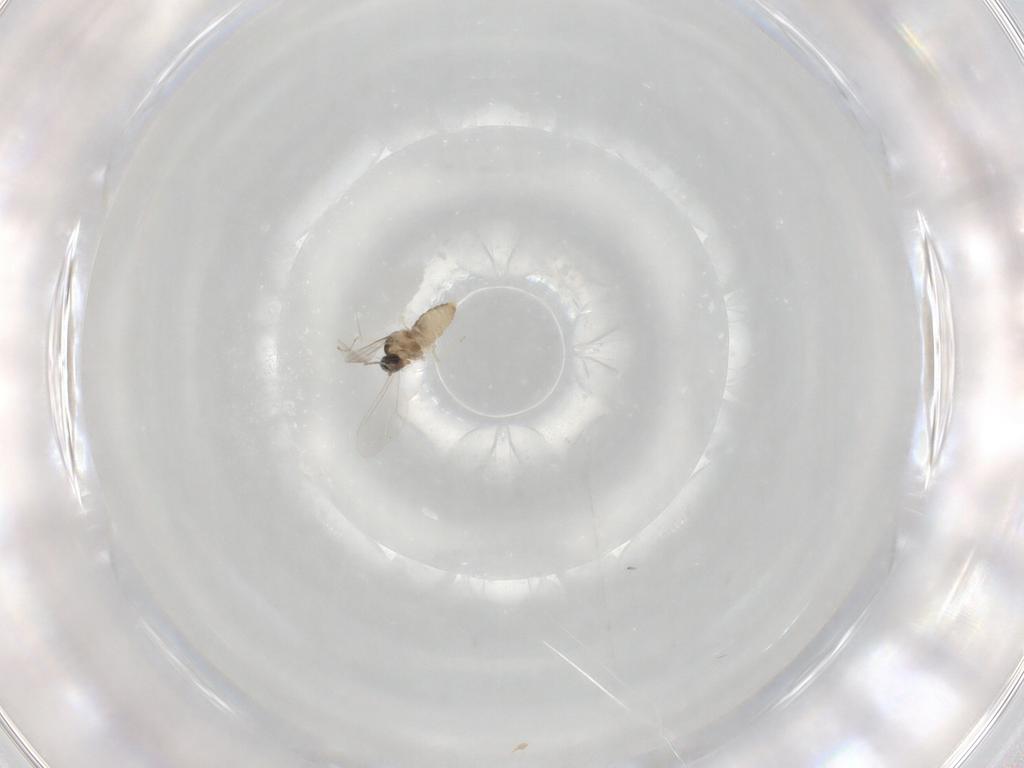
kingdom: Animalia
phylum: Arthropoda
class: Insecta
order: Diptera
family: Cecidomyiidae
